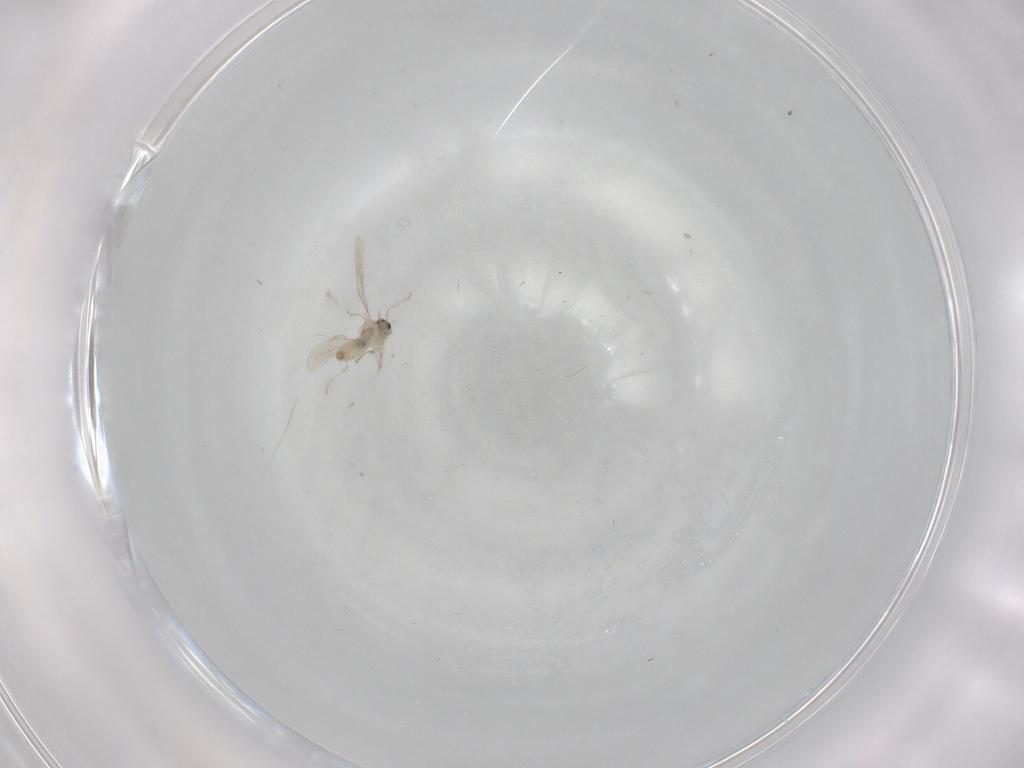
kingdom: Animalia
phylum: Arthropoda
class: Insecta
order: Diptera
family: Cecidomyiidae
